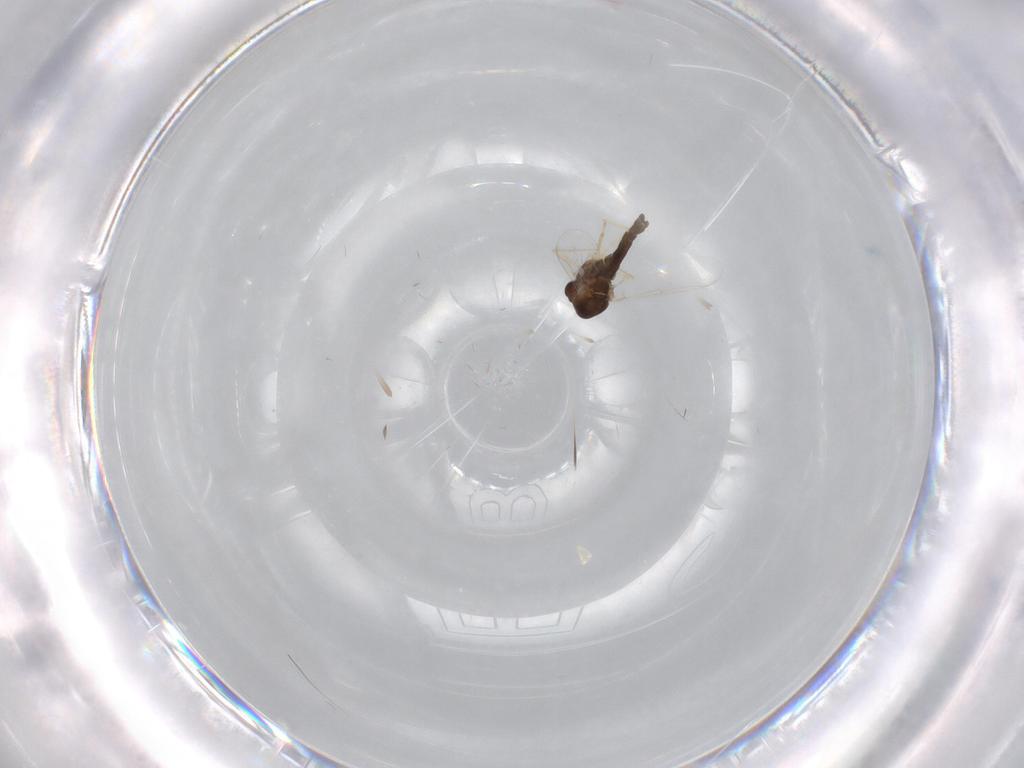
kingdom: Animalia
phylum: Arthropoda
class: Insecta
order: Diptera
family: Chironomidae
